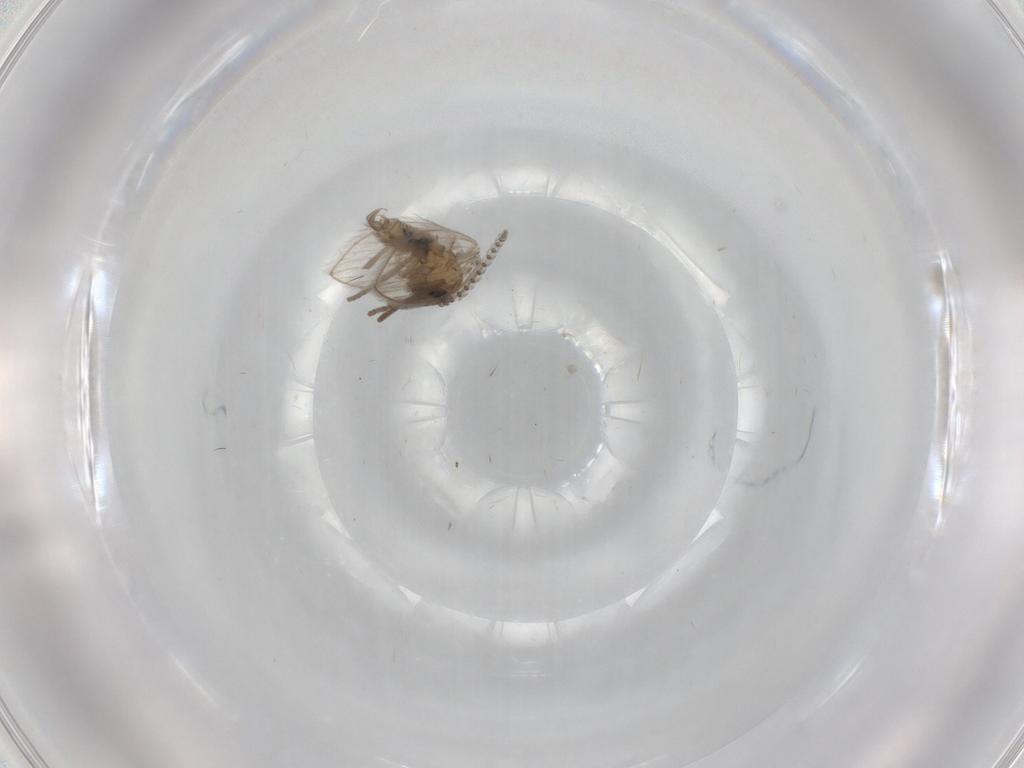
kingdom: Animalia
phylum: Arthropoda
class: Insecta
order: Diptera
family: Psychodidae
